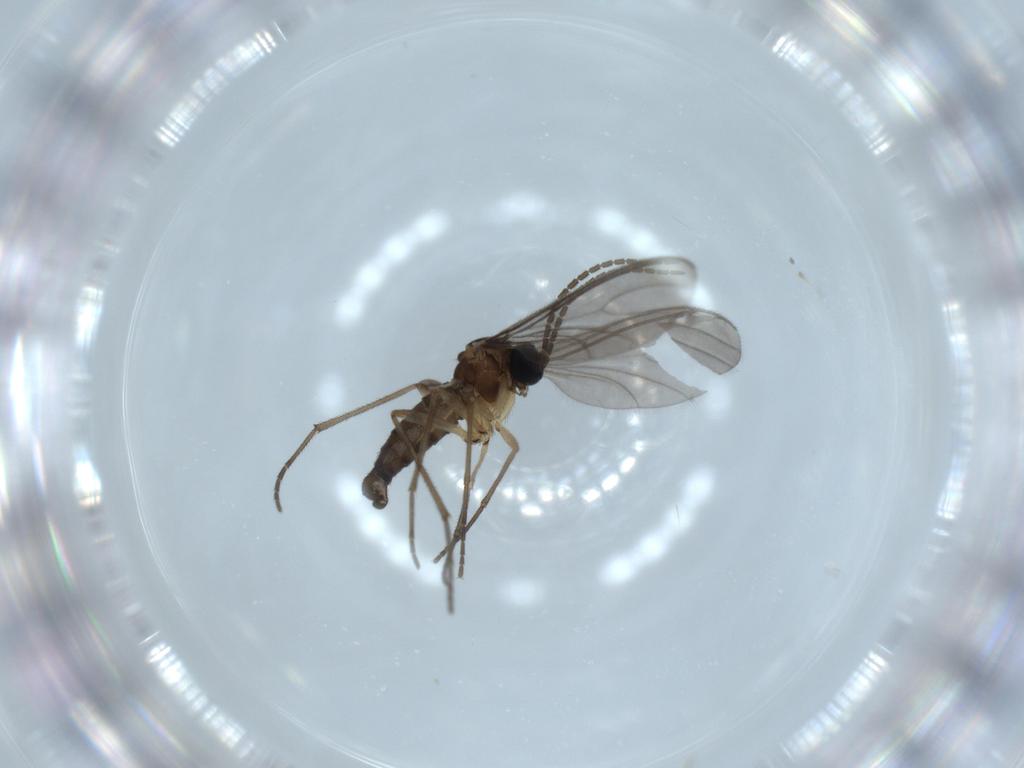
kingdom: Animalia
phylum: Arthropoda
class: Insecta
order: Diptera
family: Sciaridae
